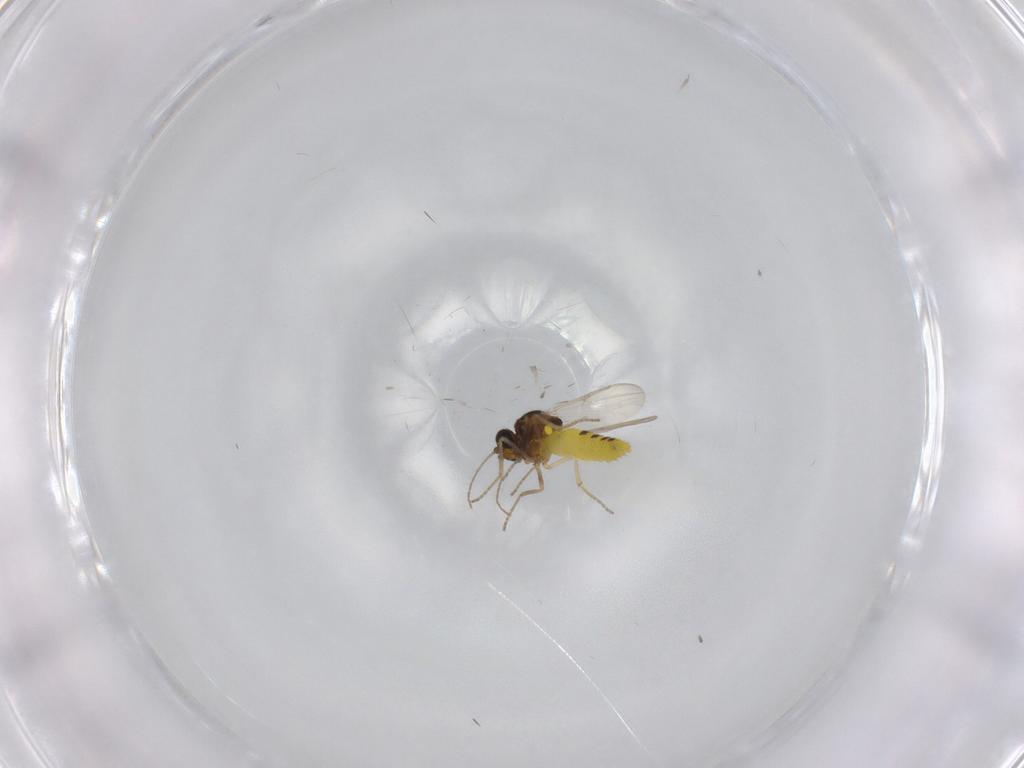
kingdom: Animalia
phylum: Arthropoda
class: Insecta
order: Diptera
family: Ceratopogonidae
